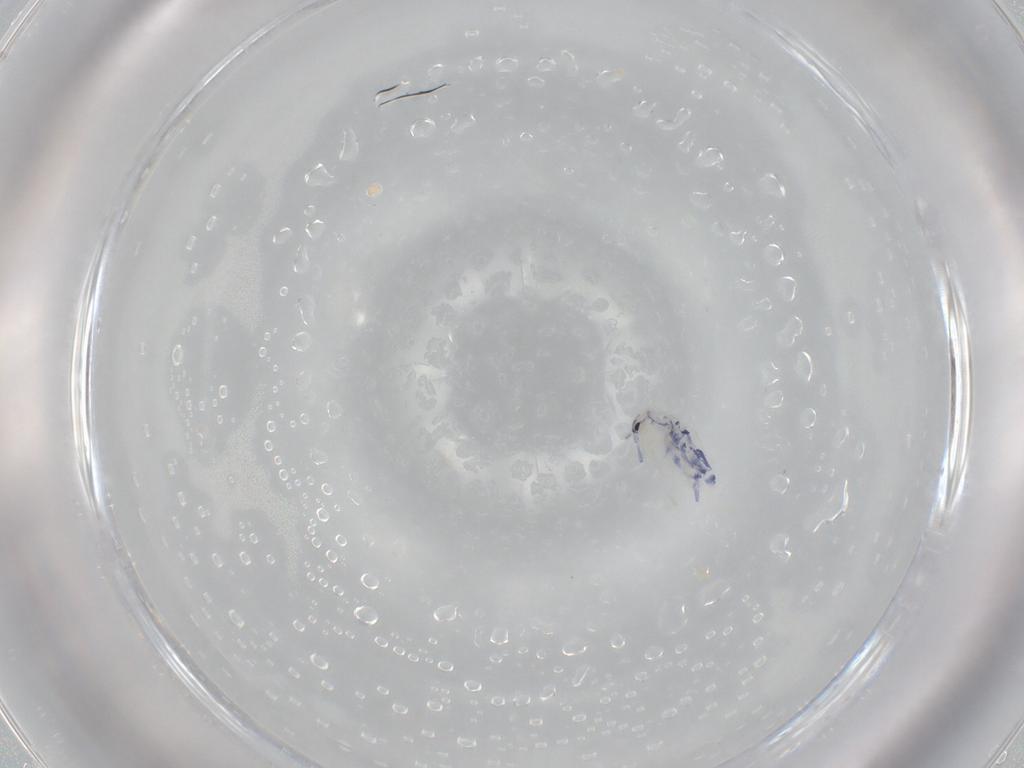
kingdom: Animalia
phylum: Arthropoda
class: Collembola
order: Entomobryomorpha
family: Entomobryidae
